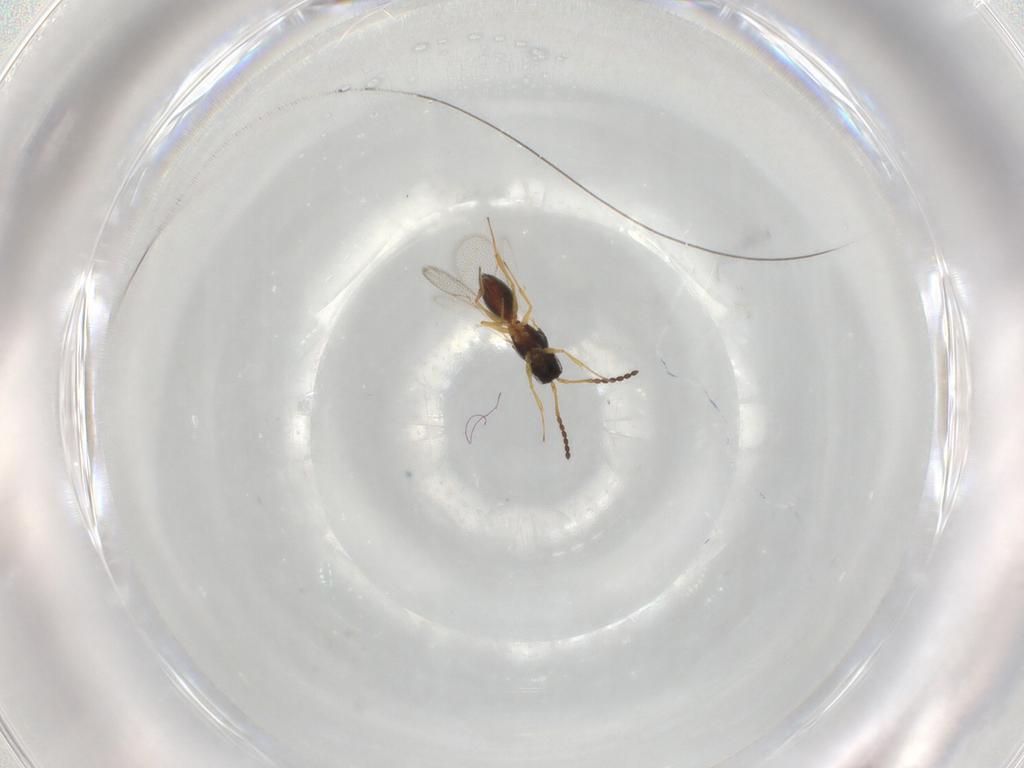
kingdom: Animalia
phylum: Arthropoda
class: Insecta
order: Hymenoptera
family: Figitidae
